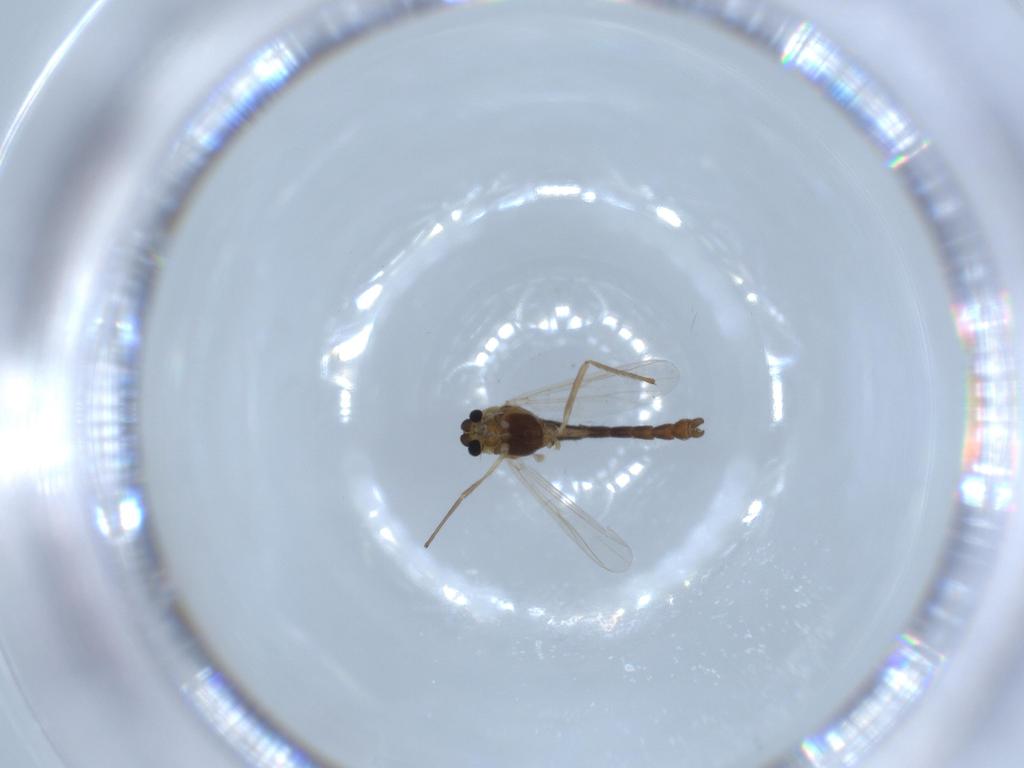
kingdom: Animalia
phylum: Arthropoda
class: Insecta
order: Diptera
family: Chironomidae
